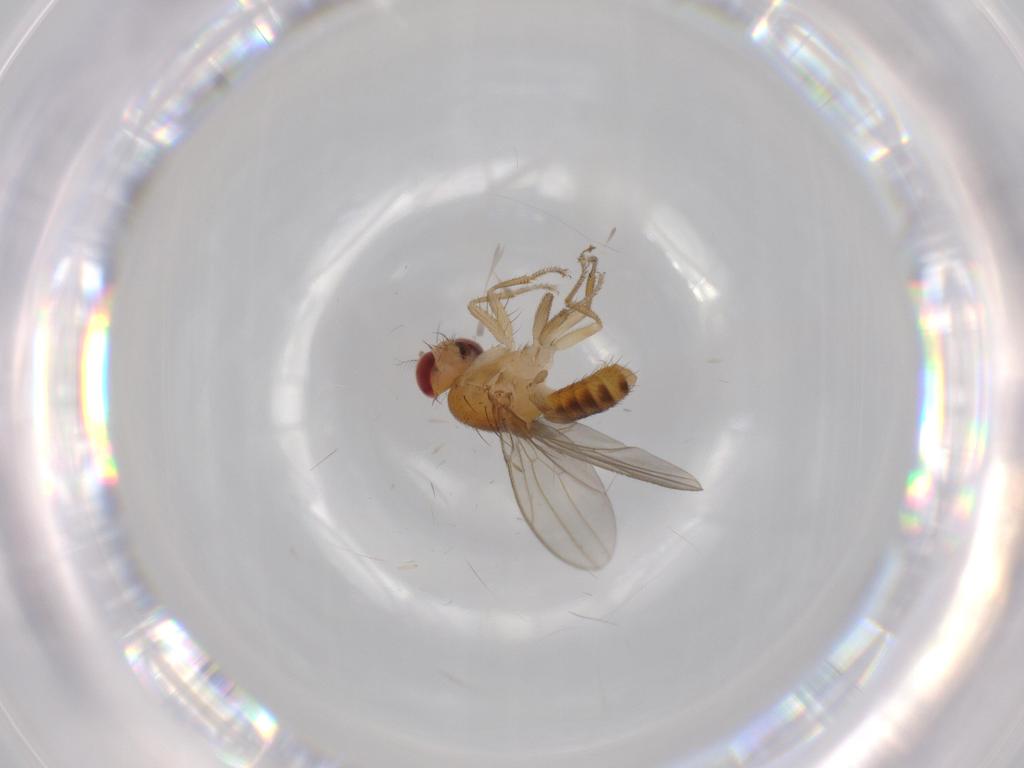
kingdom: Animalia
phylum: Arthropoda
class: Insecta
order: Diptera
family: Drosophilidae
